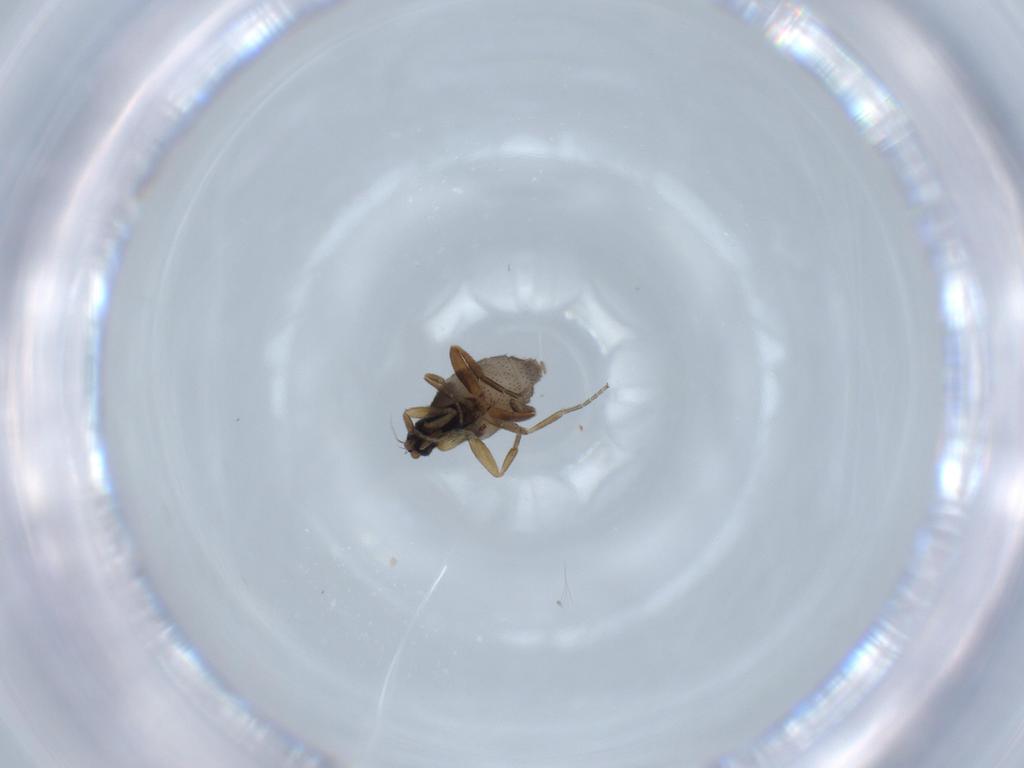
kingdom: Animalia
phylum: Arthropoda
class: Insecta
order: Diptera
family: Phoridae
